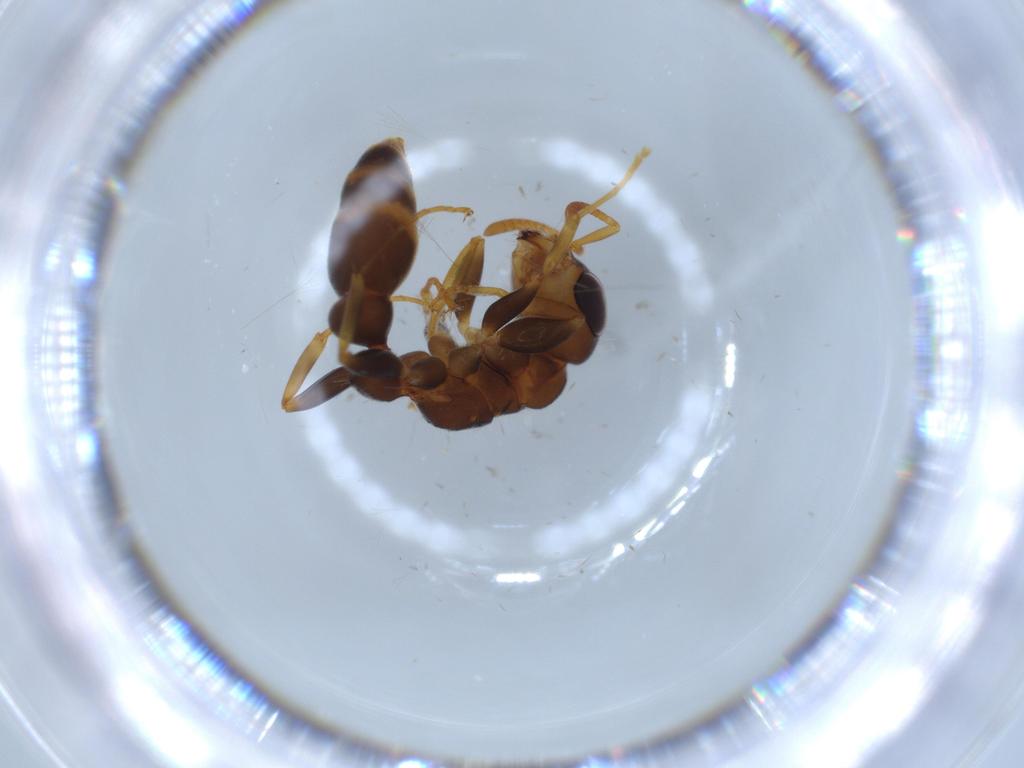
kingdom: Animalia
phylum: Arthropoda
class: Insecta
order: Hymenoptera
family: Formicidae
